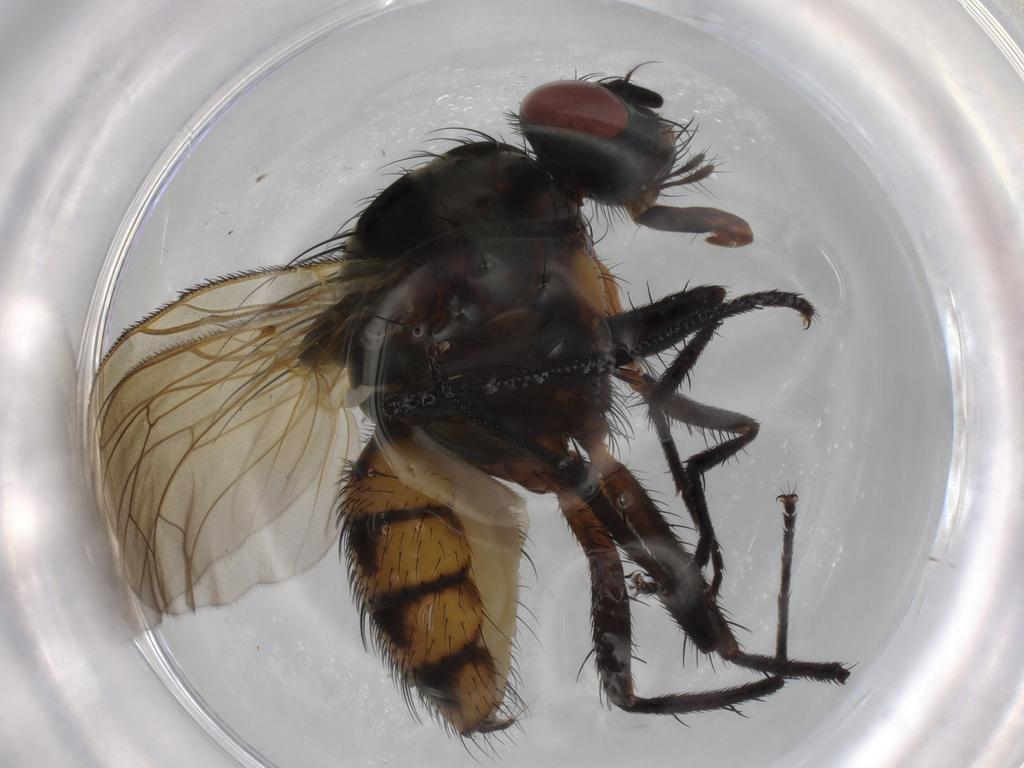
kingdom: Animalia
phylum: Arthropoda
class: Insecta
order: Diptera
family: Anthomyiidae
